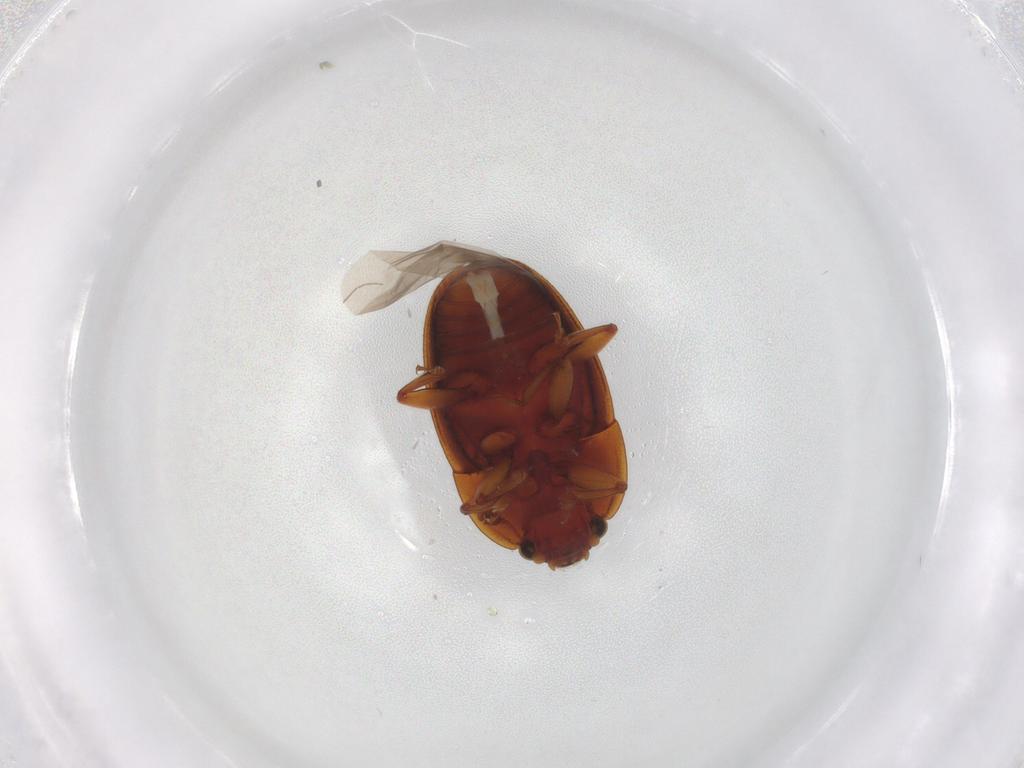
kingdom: Animalia
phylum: Arthropoda
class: Insecta
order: Coleoptera
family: Nitidulidae
